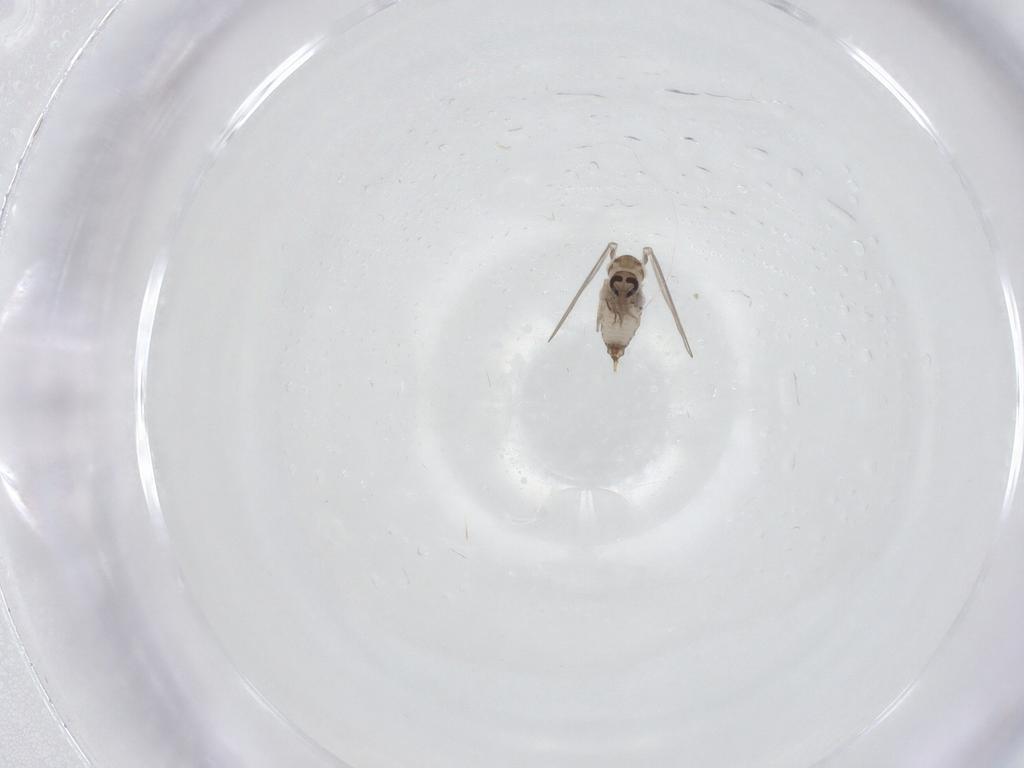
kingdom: Animalia
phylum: Arthropoda
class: Insecta
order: Diptera
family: Psychodidae
